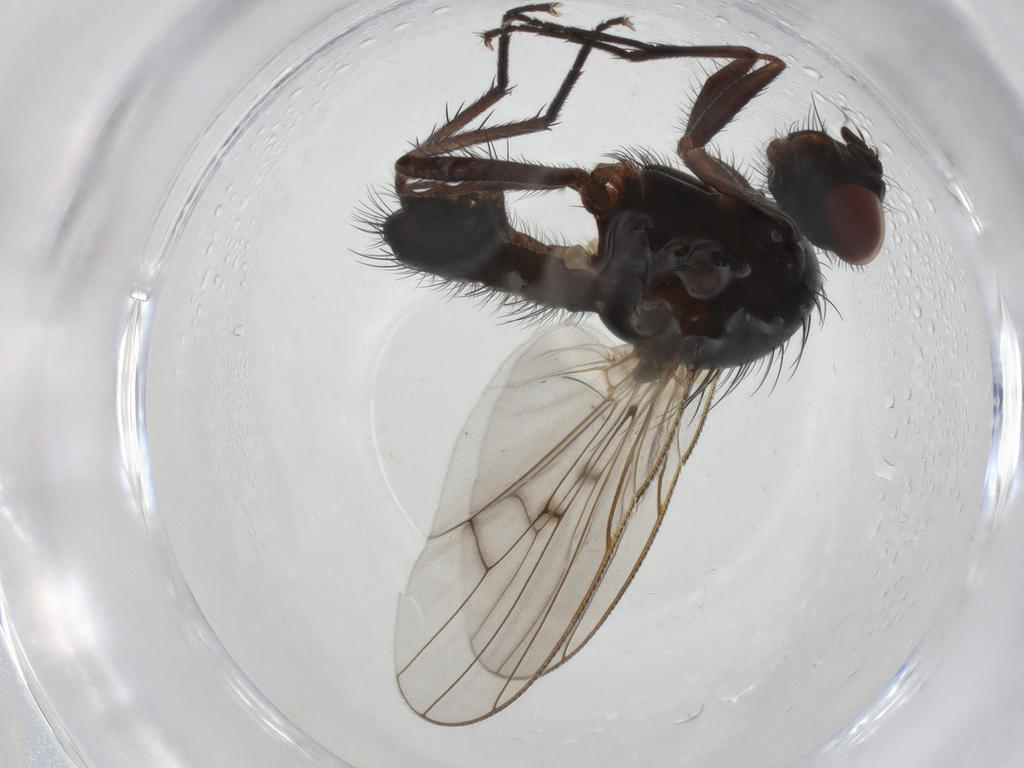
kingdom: Animalia
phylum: Arthropoda
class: Insecta
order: Diptera
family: Anthomyiidae
